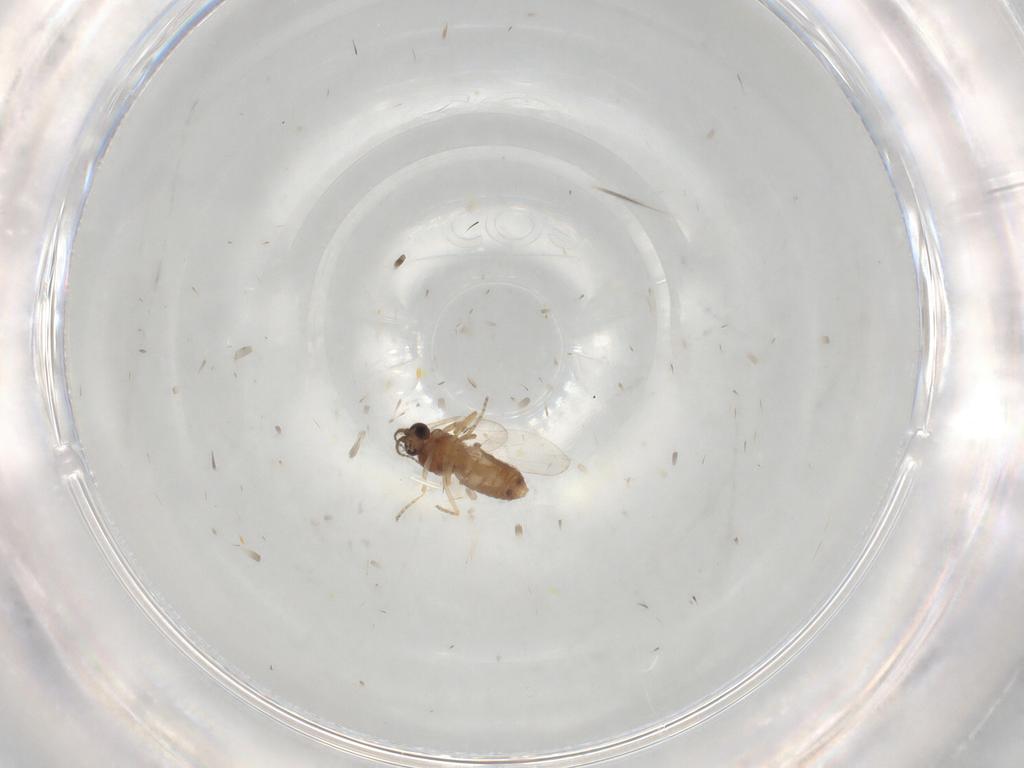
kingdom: Animalia
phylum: Arthropoda
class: Insecta
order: Diptera
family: Ceratopogonidae
